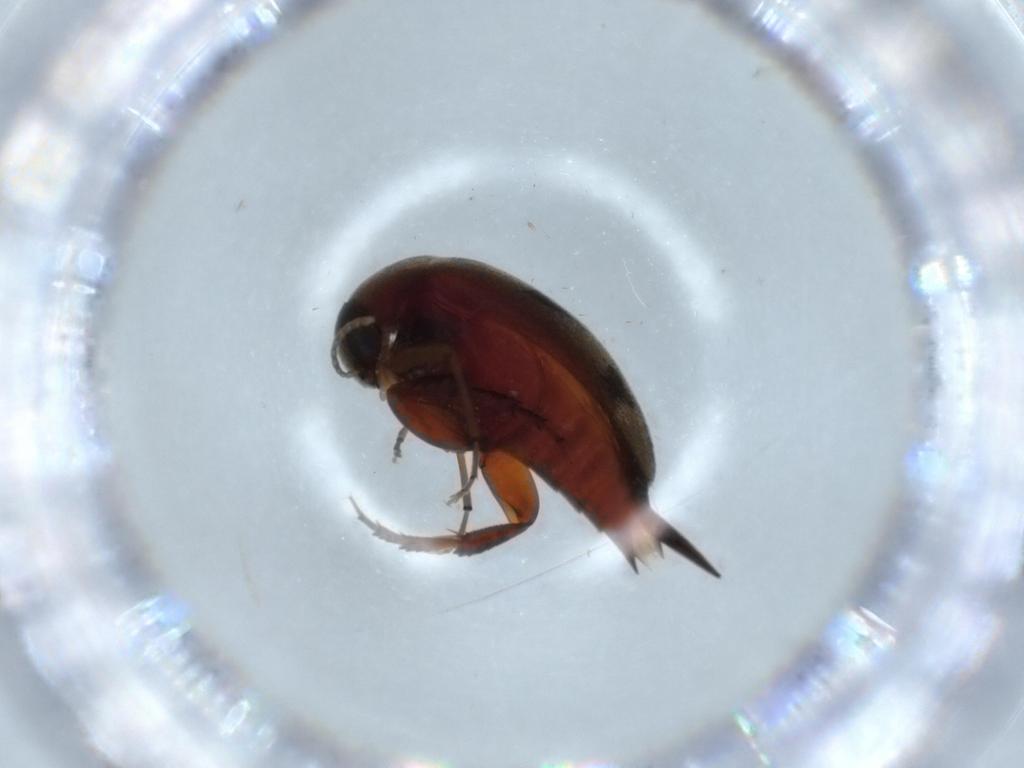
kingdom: Animalia
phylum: Arthropoda
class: Insecta
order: Coleoptera
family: Mordellidae
